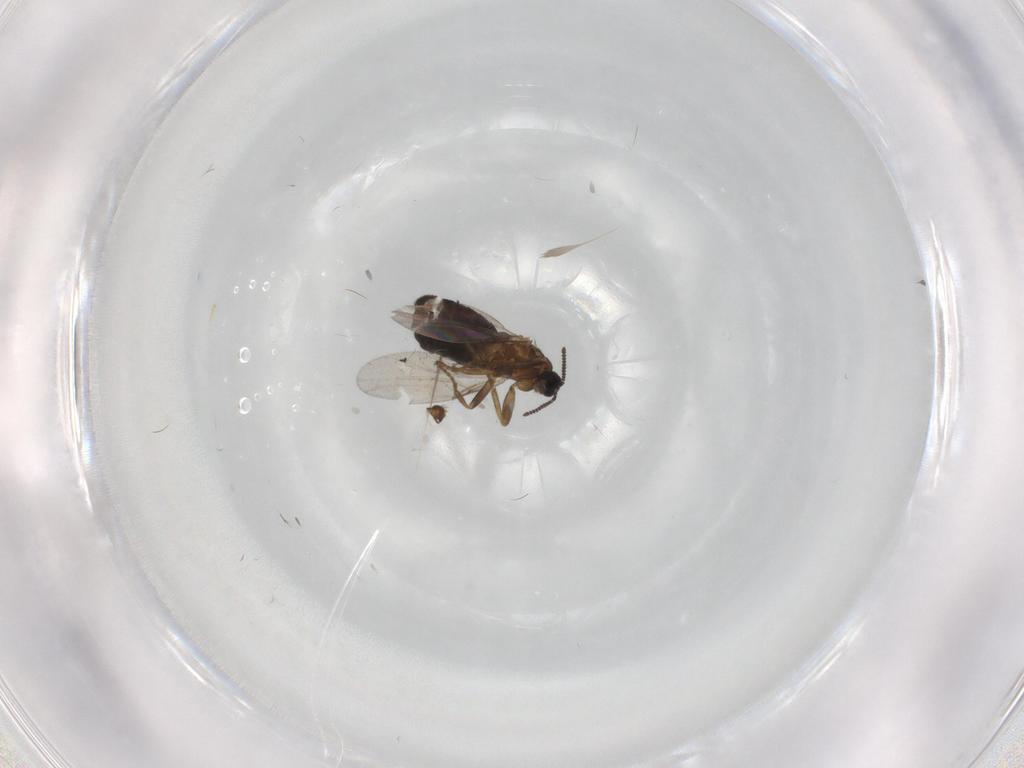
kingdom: Animalia
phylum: Arthropoda
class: Insecta
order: Diptera
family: Scatopsidae
